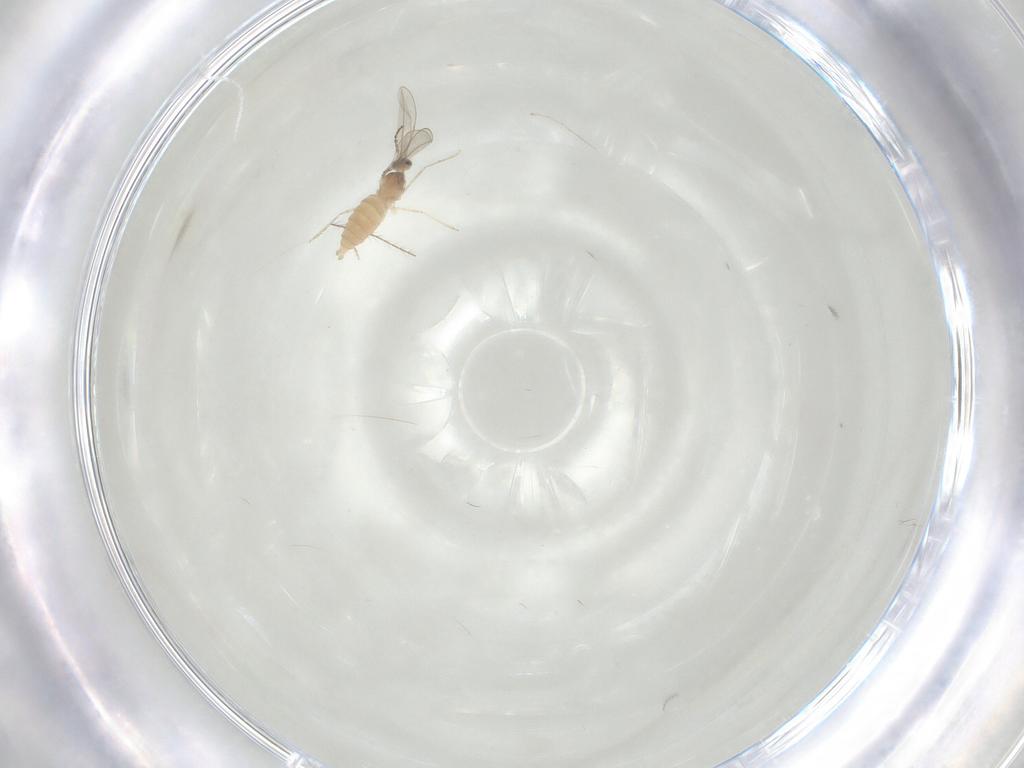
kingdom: Animalia
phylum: Arthropoda
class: Insecta
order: Diptera
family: Cecidomyiidae
